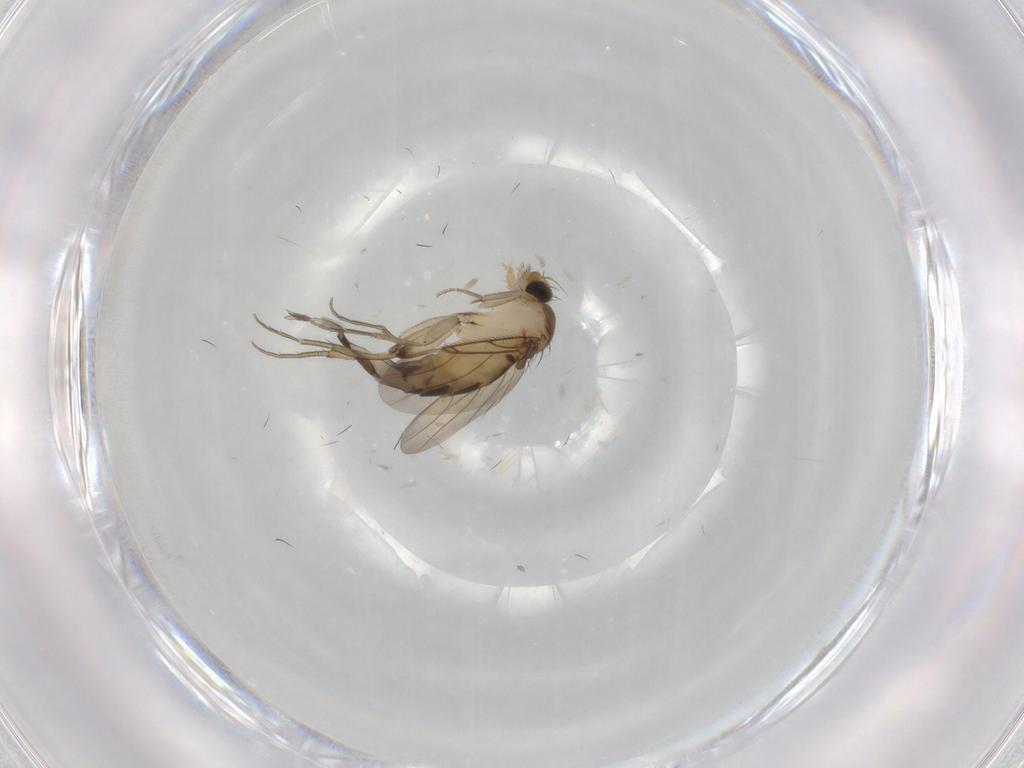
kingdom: Animalia
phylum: Arthropoda
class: Insecta
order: Diptera
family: Phoridae
